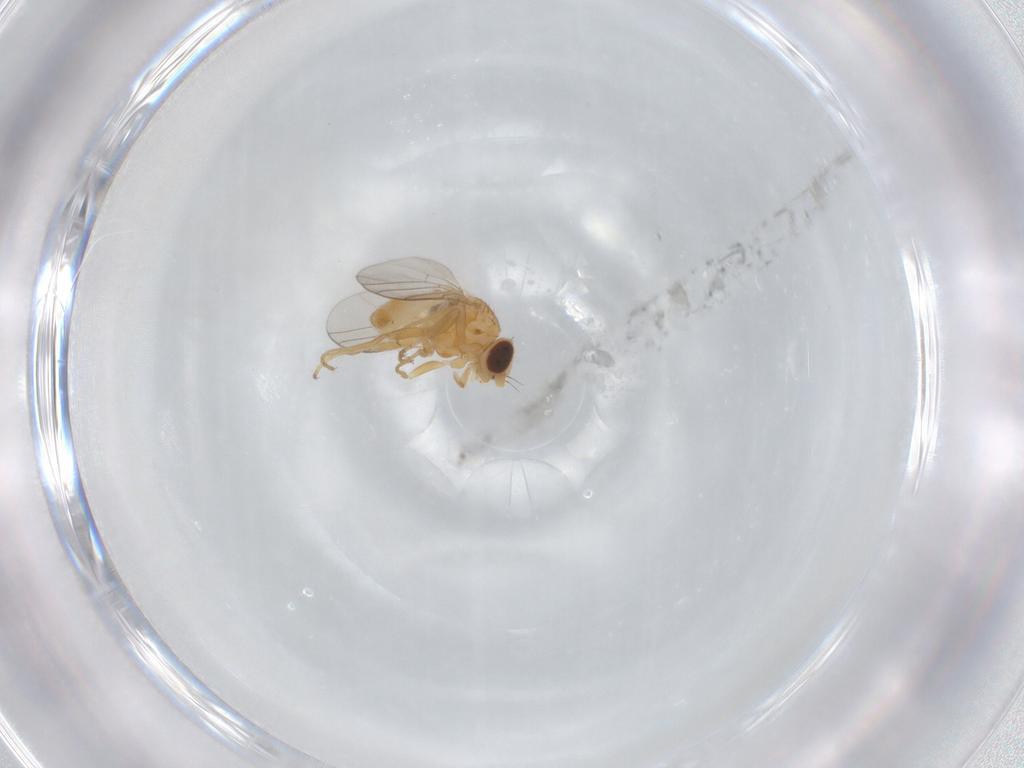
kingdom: Animalia
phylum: Arthropoda
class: Insecta
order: Diptera
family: Chloropidae
